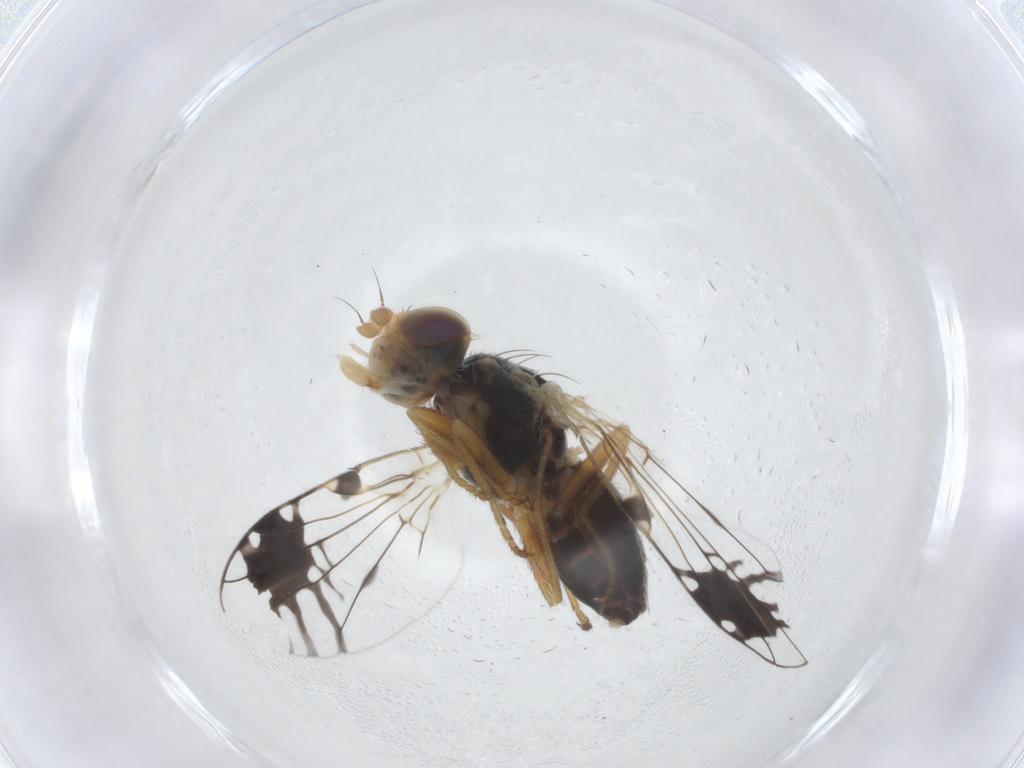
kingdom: Animalia
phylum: Arthropoda
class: Insecta
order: Diptera
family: Tephritidae
